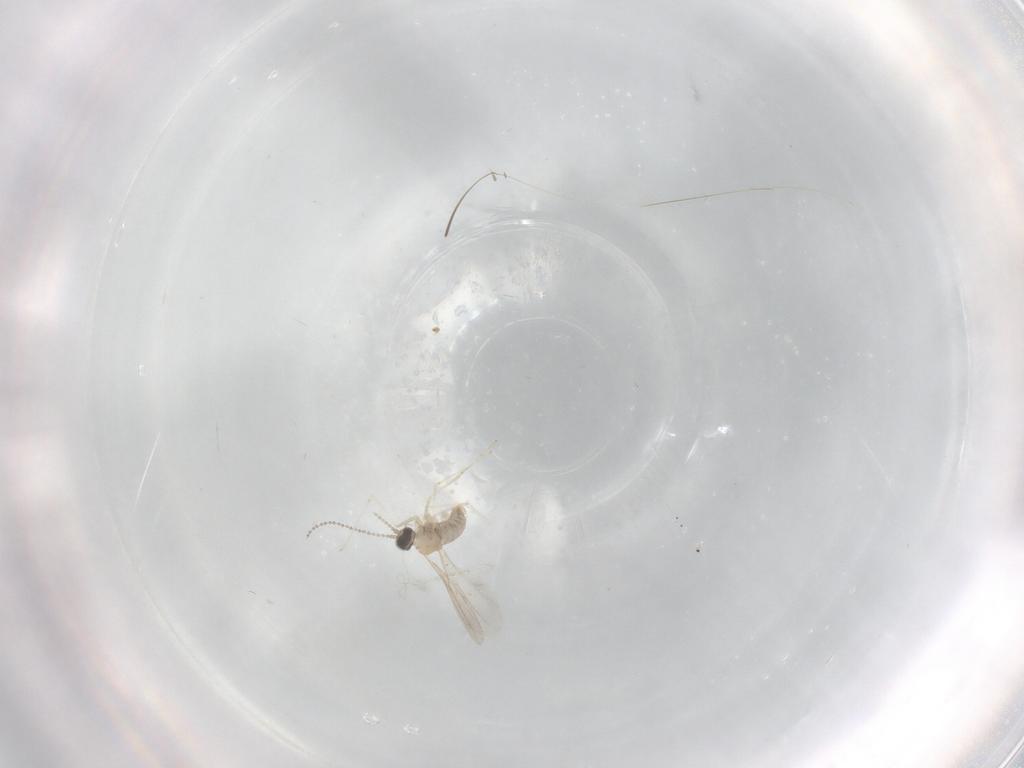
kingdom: Animalia
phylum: Arthropoda
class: Insecta
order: Diptera
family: Cecidomyiidae
